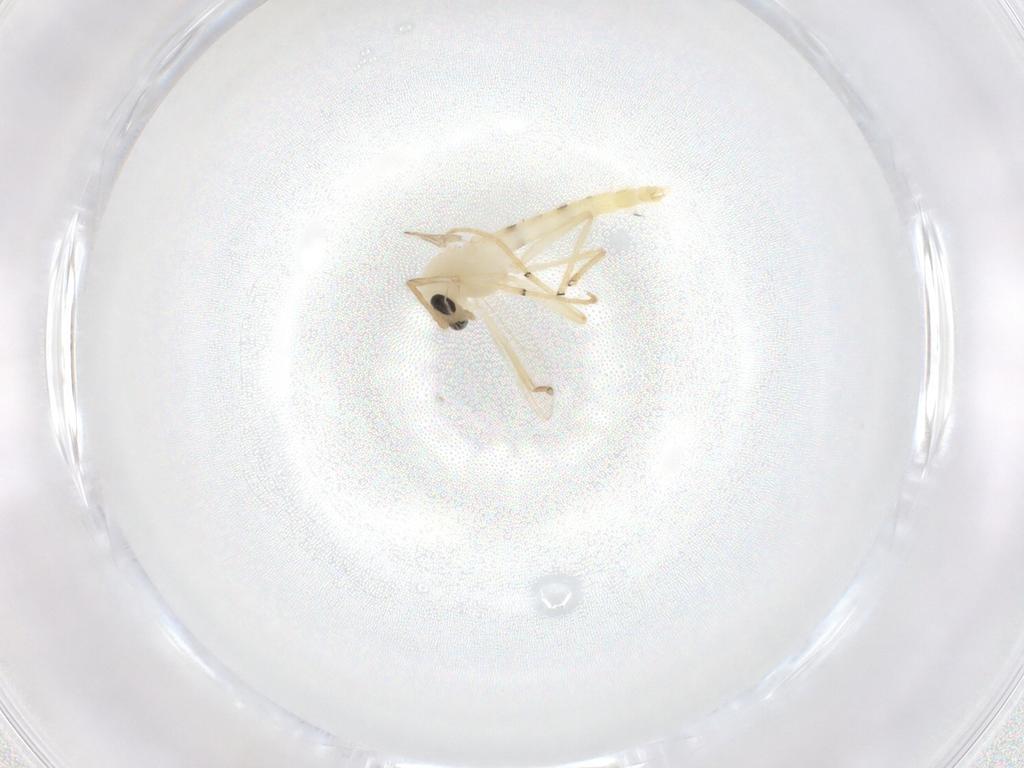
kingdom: Animalia
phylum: Arthropoda
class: Insecta
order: Diptera
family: Chironomidae
